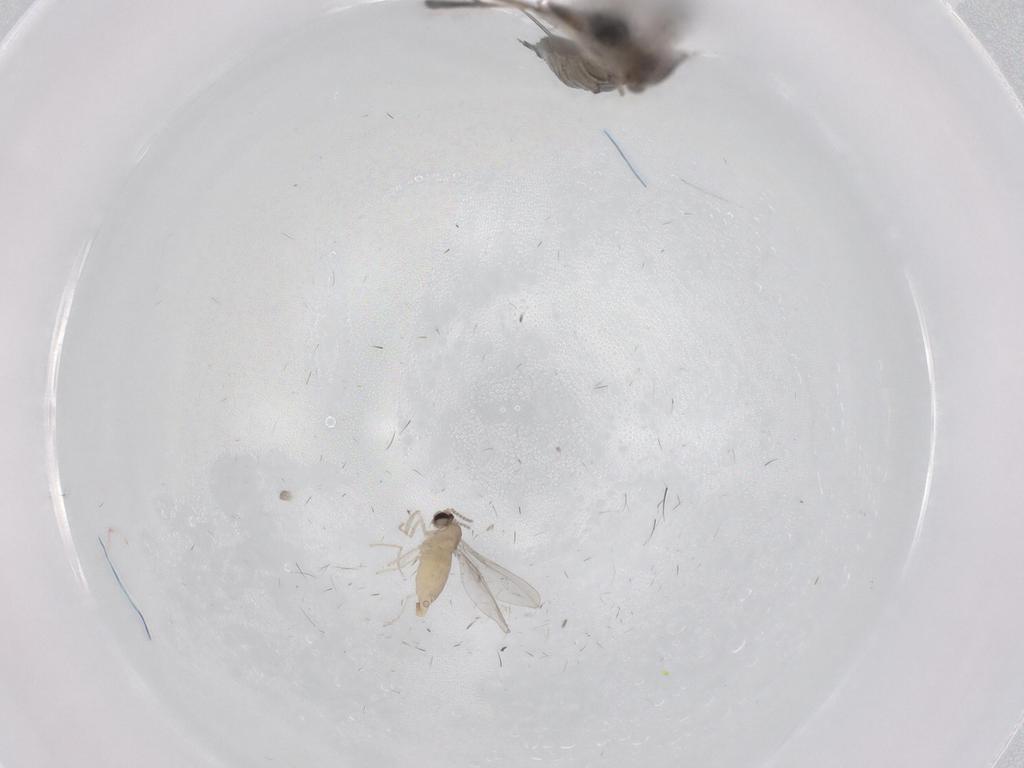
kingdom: Animalia
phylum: Arthropoda
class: Insecta
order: Diptera
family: Sciaridae
